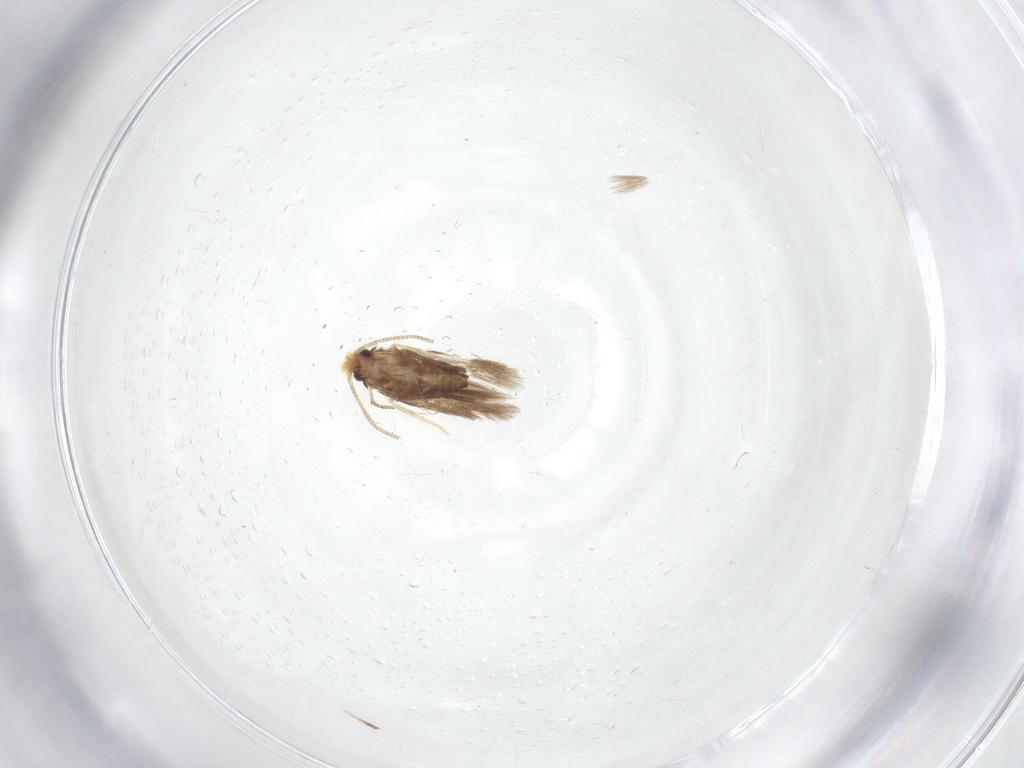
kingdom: Animalia
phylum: Arthropoda
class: Insecta
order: Lepidoptera
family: Nepticulidae
